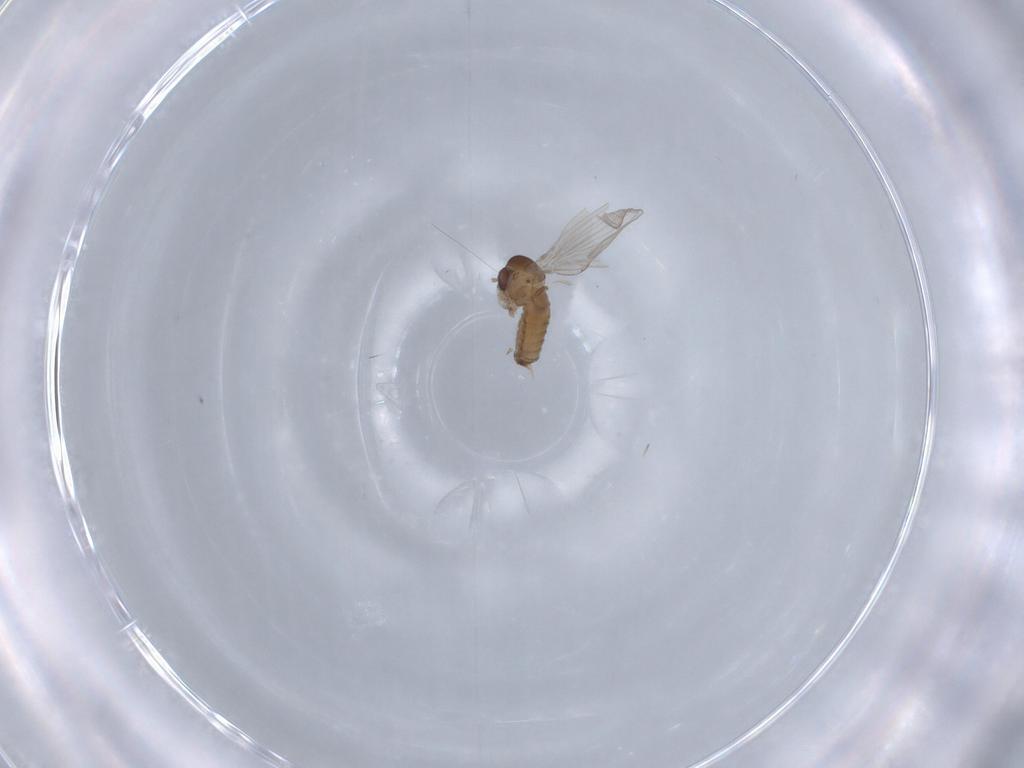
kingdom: Animalia
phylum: Arthropoda
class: Insecta
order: Diptera
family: Psychodidae
